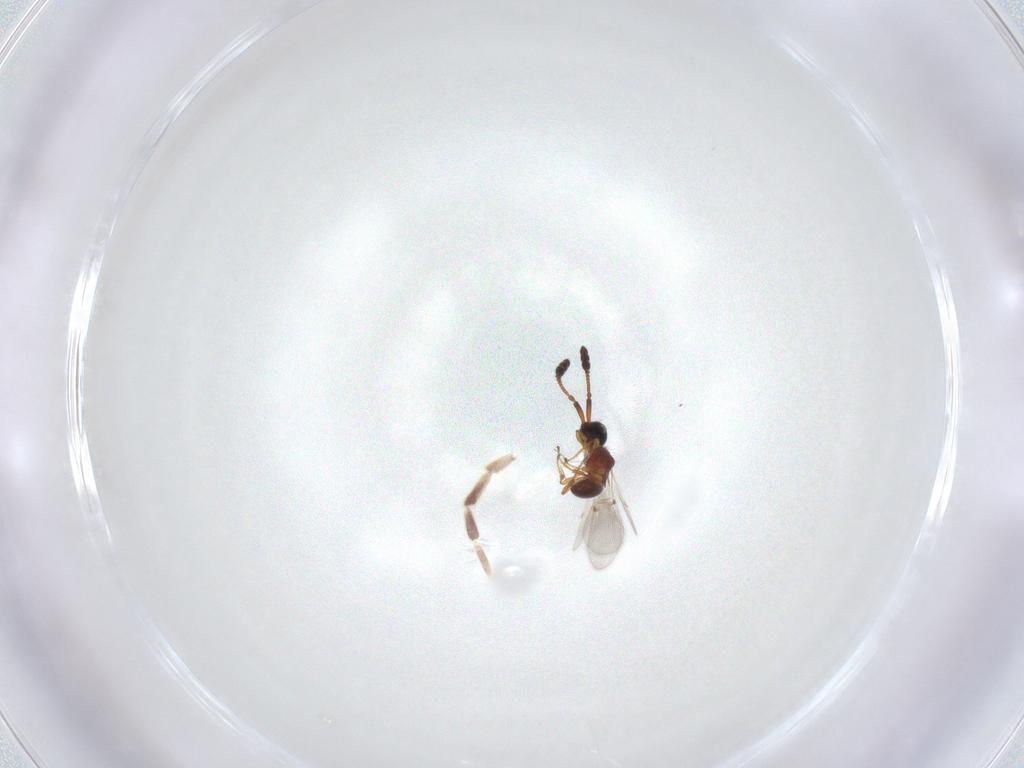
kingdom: Animalia
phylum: Arthropoda
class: Insecta
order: Hymenoptera
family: Diapriidae
